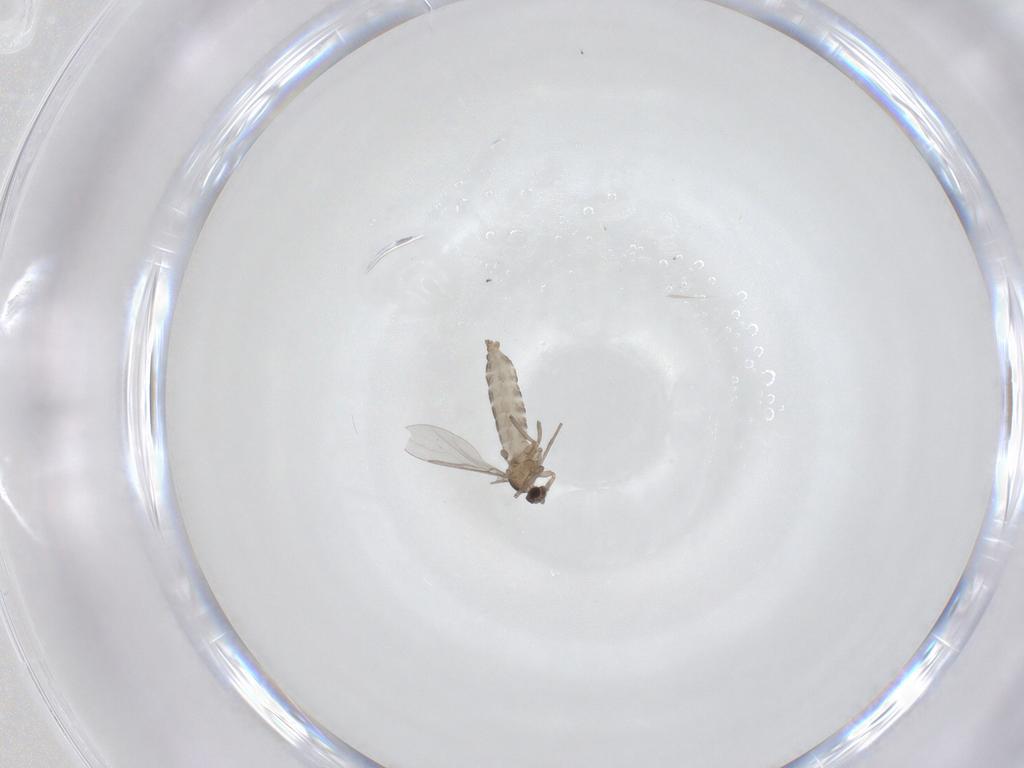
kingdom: Animalia
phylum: Arthropoda
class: Insecta
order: Diptera
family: Cecidomyiidae
